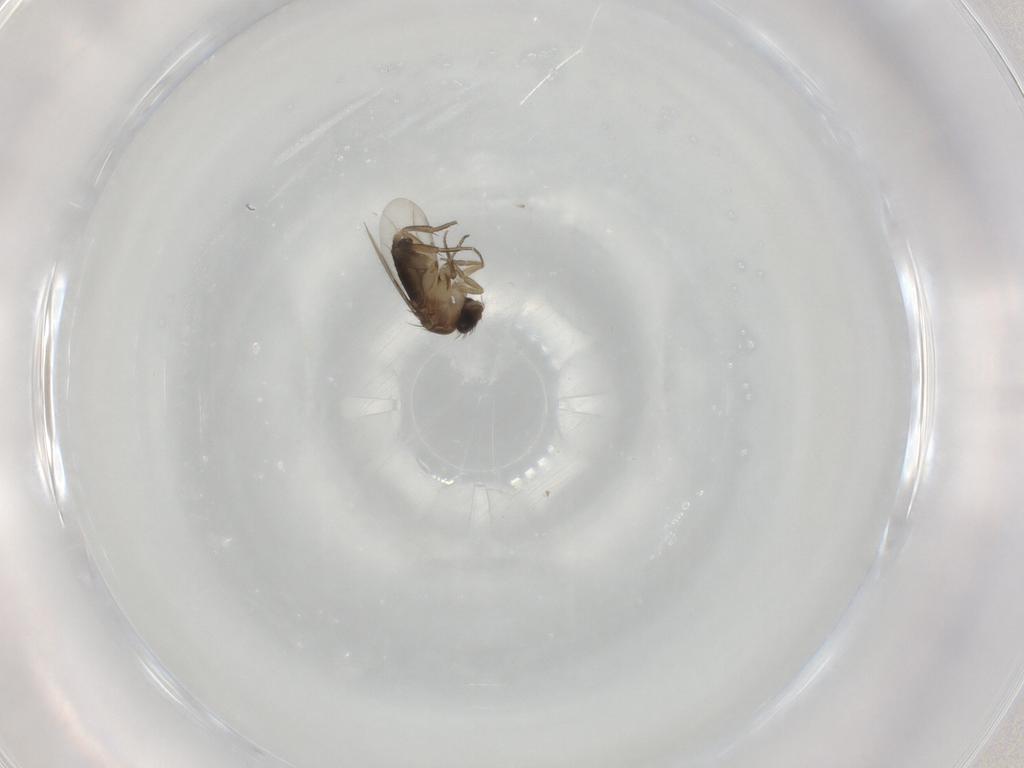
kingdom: Animalia
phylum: Arthropoda
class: Insecta
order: Diptera
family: Phoridae
